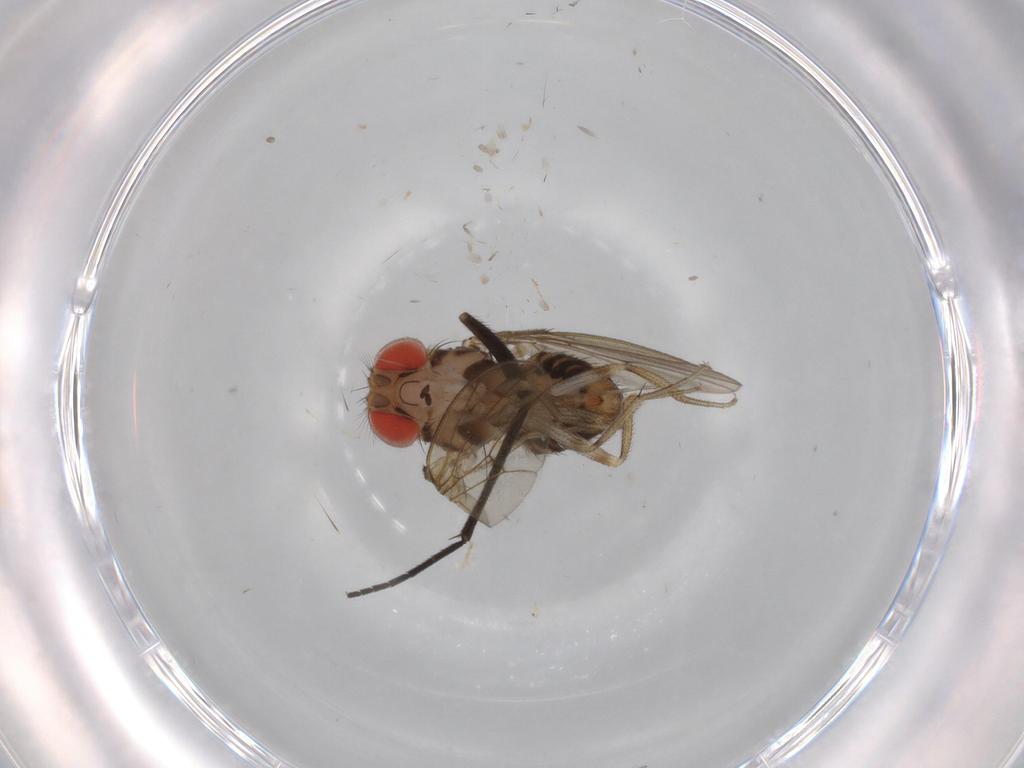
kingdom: Animalia
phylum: Arthropoda
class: Insecta
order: Diptera
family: Drosophilidae
